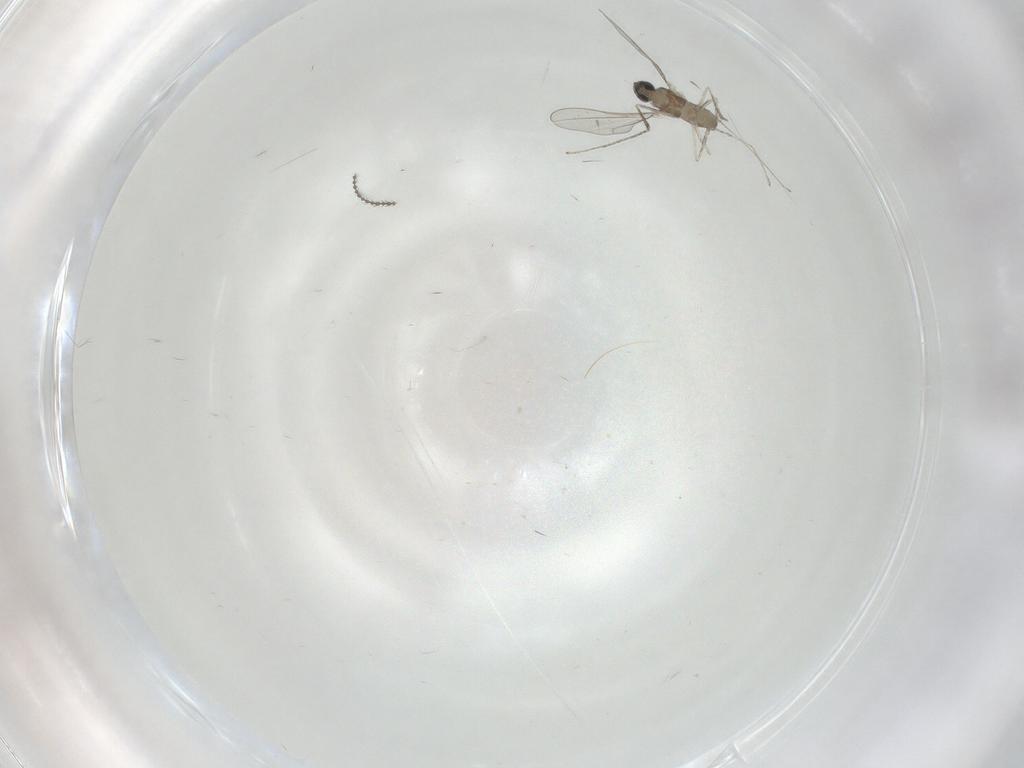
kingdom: Animalia
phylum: Arthropoda
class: Insecta
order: Diptera
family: Cecidomyiidae
